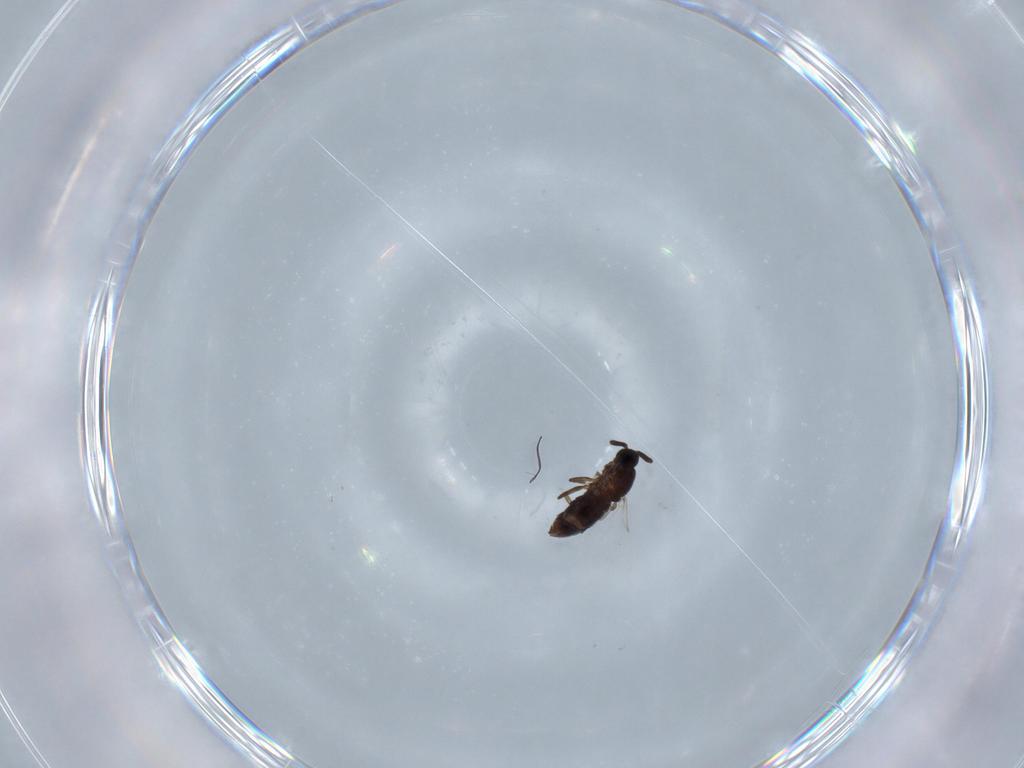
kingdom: Animalia
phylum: Arthropoda
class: Insecta
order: Diptera
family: Scatopsidae
